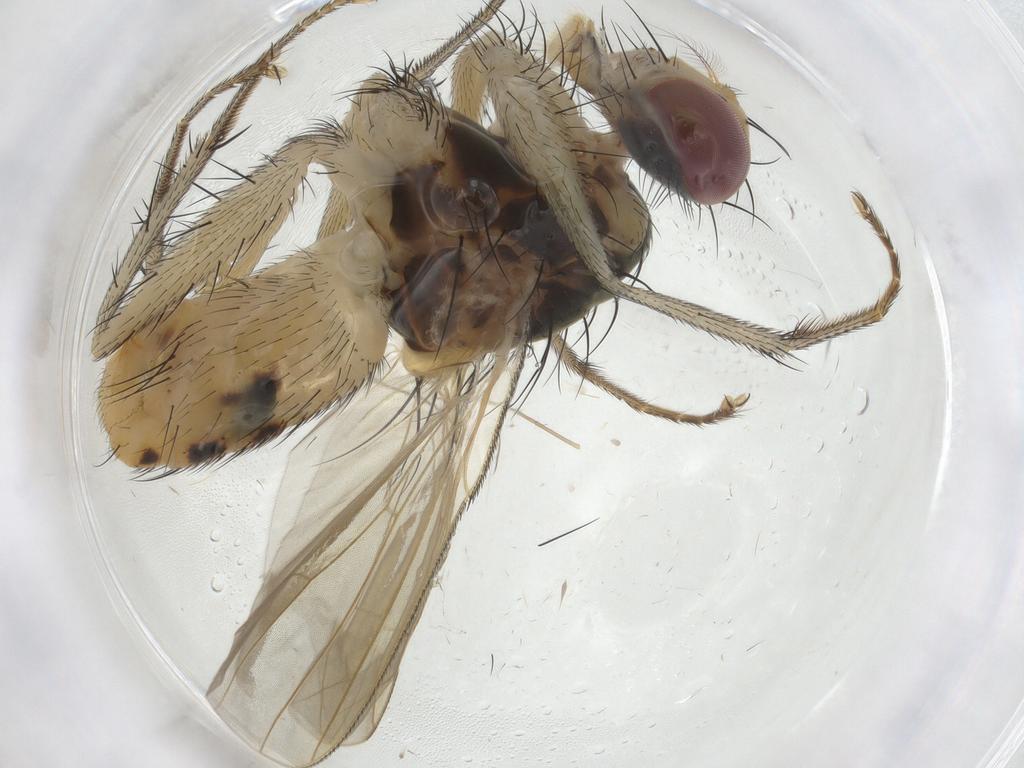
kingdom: Animalia
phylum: Arthropoda
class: Insecta
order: Diptera
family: Muscidae
